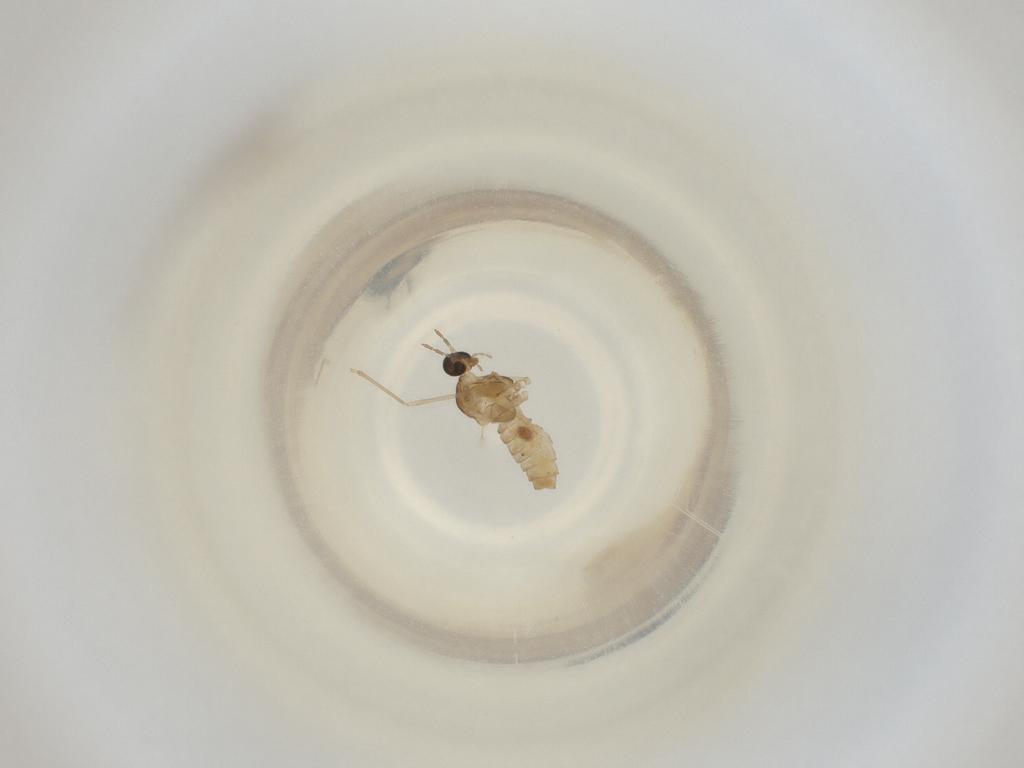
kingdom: Animalia
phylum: Arthropoda
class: Insecta
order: Diptera
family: Cecidomyiidae
